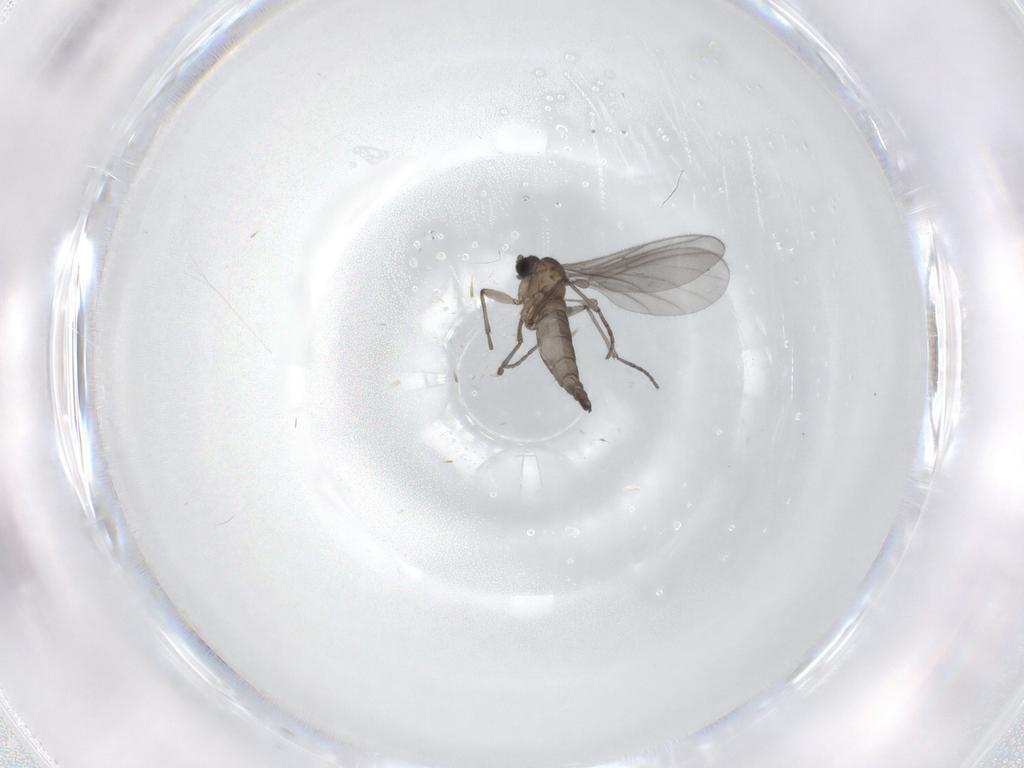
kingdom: Animalia
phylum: Arthropoda
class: Insecta
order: Diptera
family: Sciaridae
